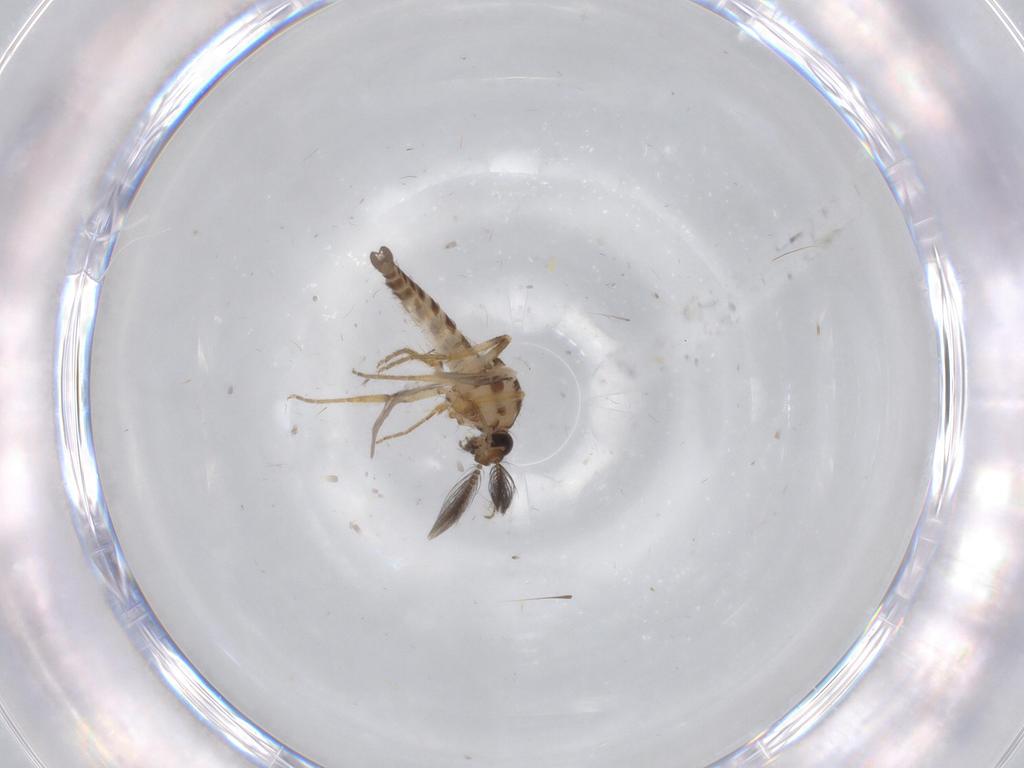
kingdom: Animalia
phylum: Arthropoda
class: Insecta
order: Diptera
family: Ceratopogonidae
